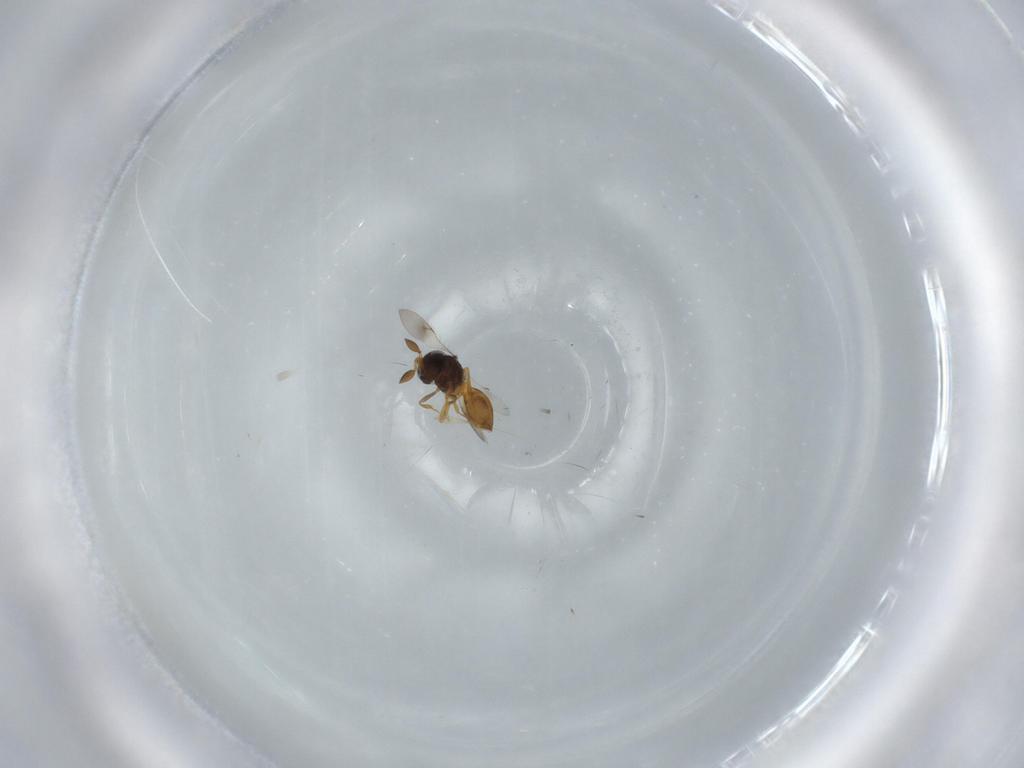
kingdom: Animalia
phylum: Arthropoda
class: Insecta
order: Hymenoptera
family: Scelionidae
